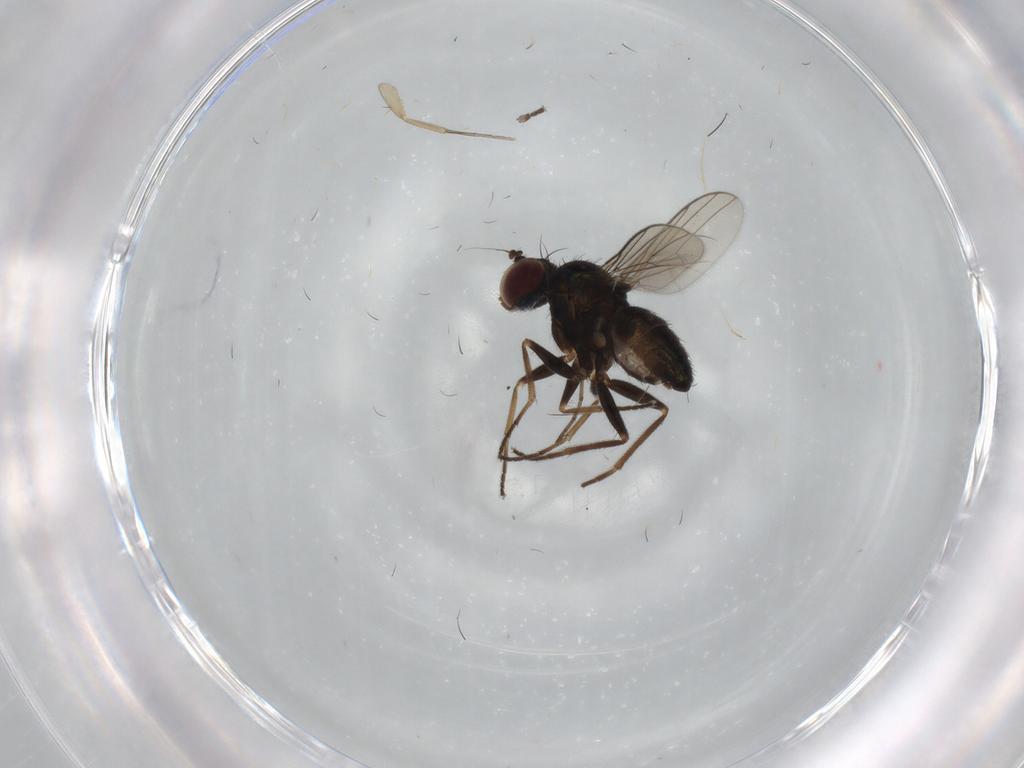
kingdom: Animalia
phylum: Arthropoda
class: Insecta
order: Diptera
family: Dolichopodidae
